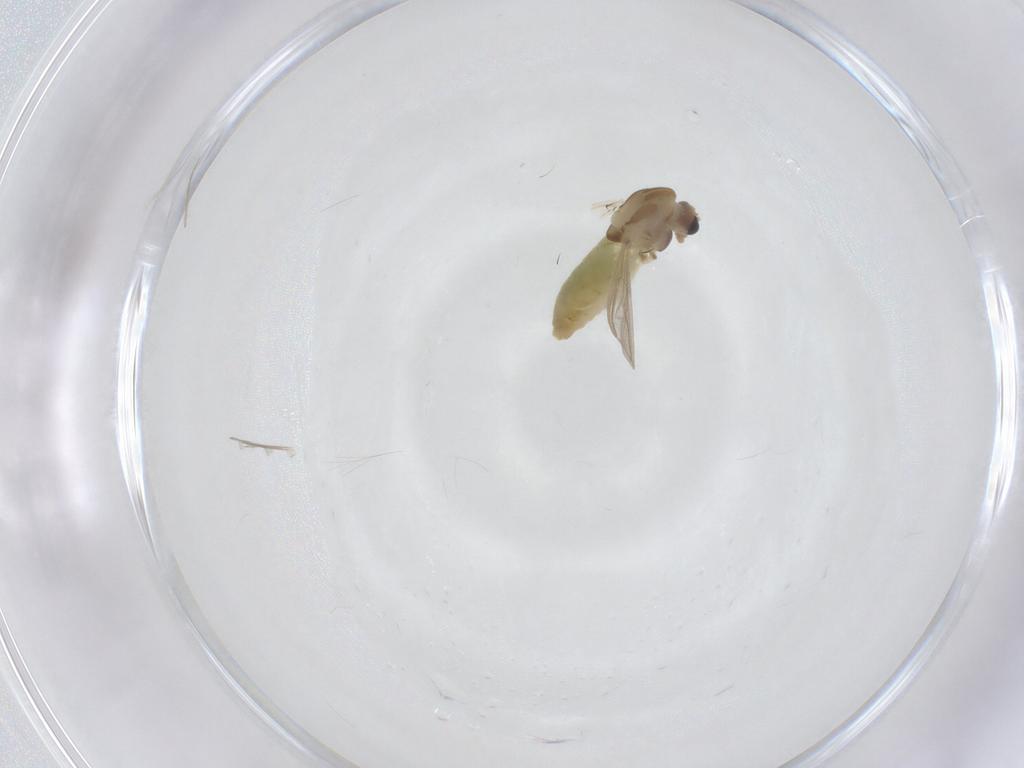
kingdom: Animalia
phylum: Arthropoda
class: Insecta
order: Diptera
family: Chironomidae
